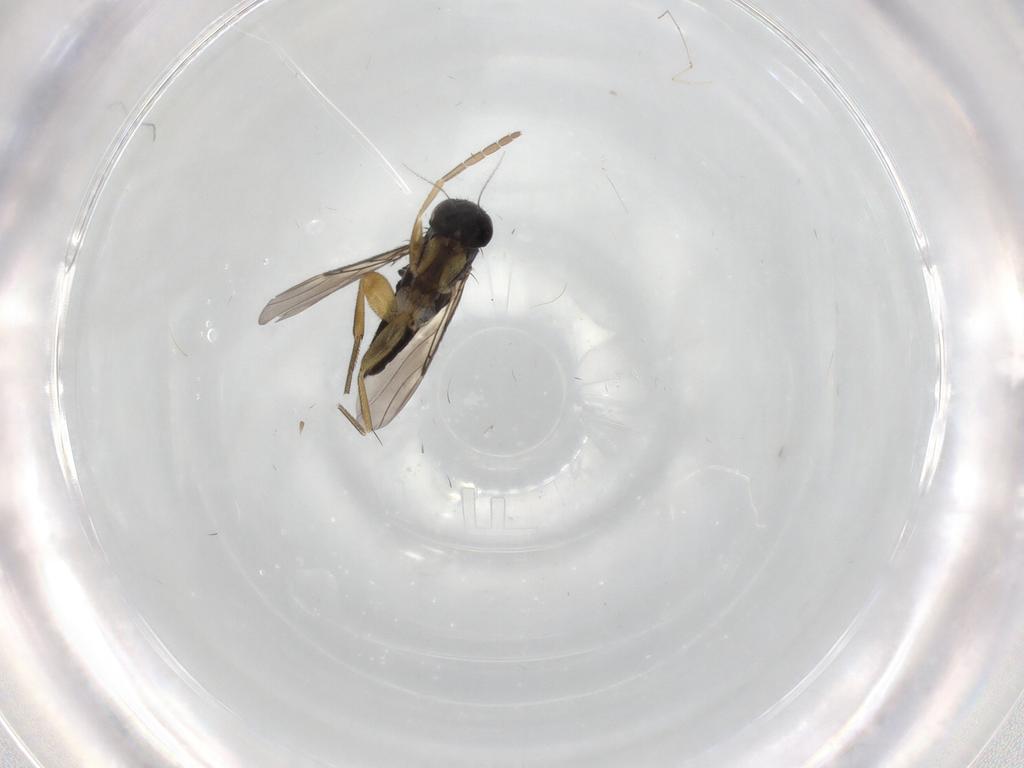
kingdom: Animalia
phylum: Arthropoda
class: Insecta
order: Diptera
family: Cecidomyiidae
